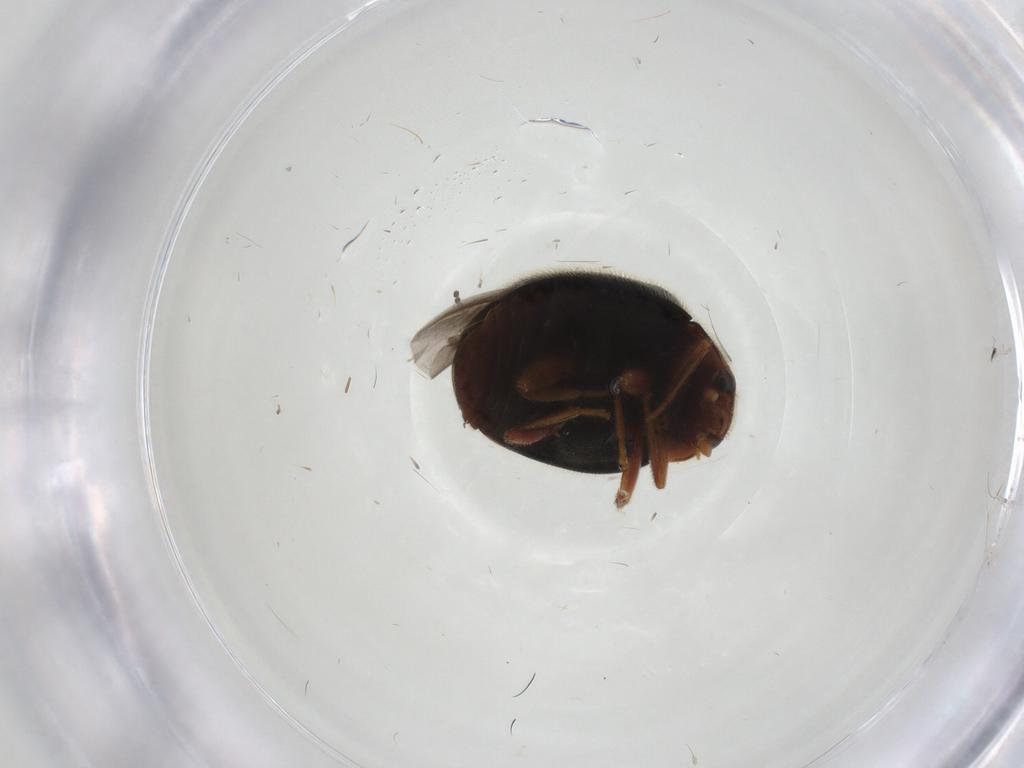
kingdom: Animalia
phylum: Arthropoda
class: Insecta
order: Coleoptera
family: Coccinellidae
